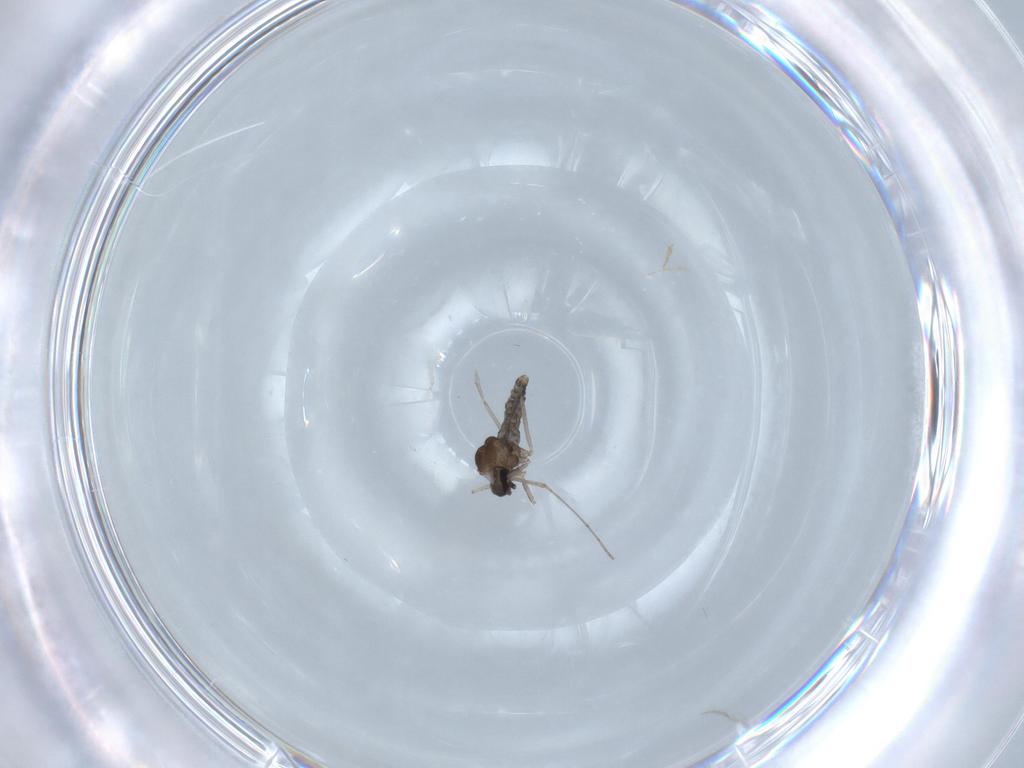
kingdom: Animalia
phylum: Arthropoda
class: Insecta
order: Diptera
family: Cecidomyiidae
